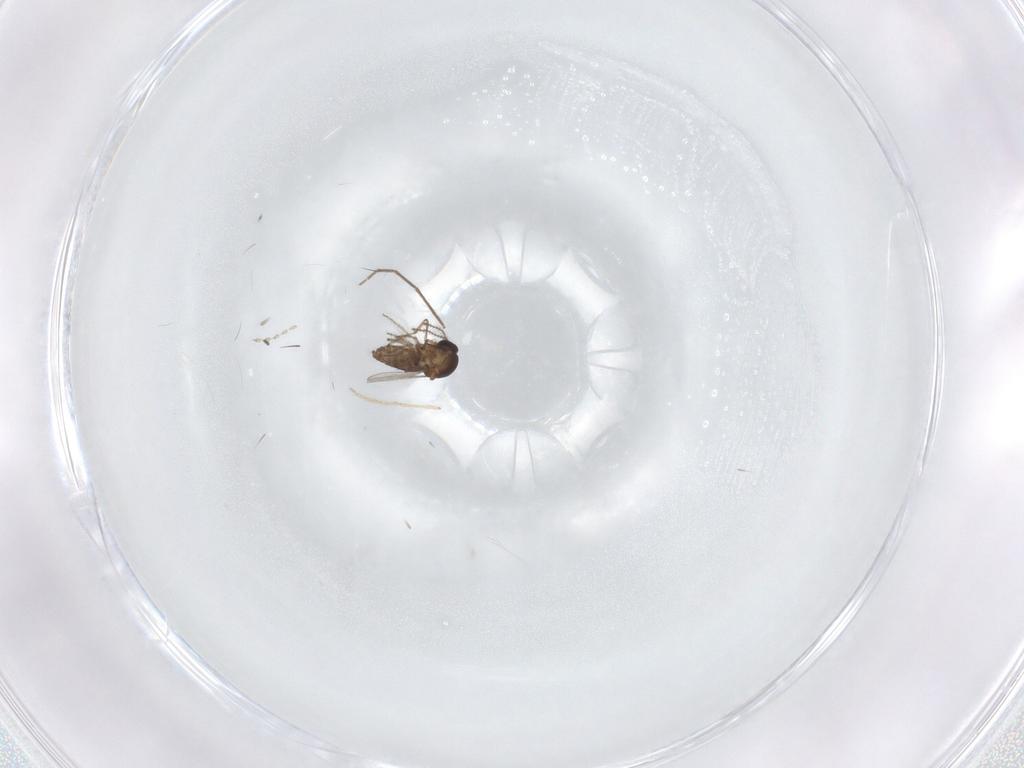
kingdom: Animalia
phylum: Arthropoda
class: Insecta
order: Diptera
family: Ceratopogonidae
